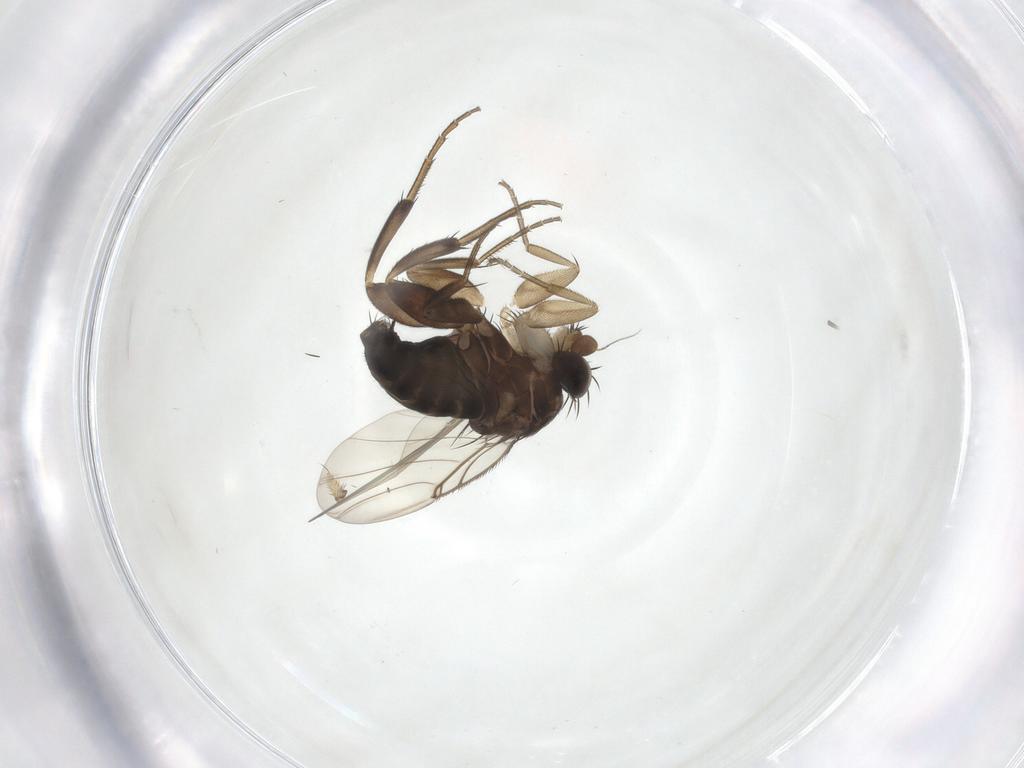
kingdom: Animalia
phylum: Arthropoda
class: Insecta
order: Diptera
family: Phoridae
